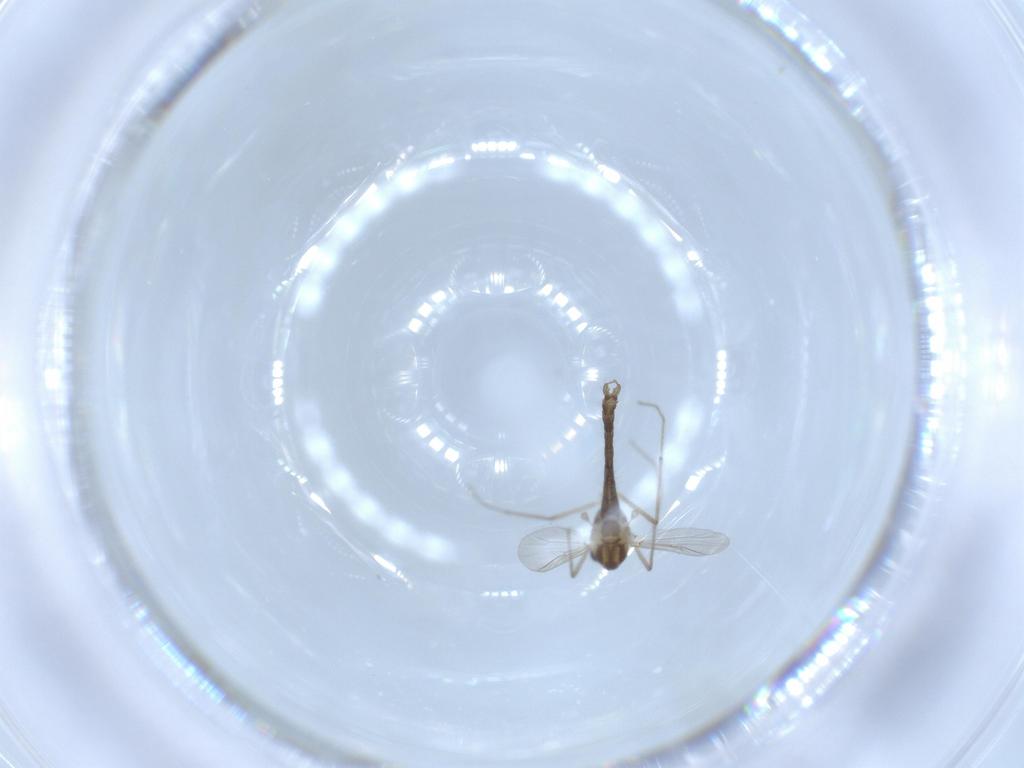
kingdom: Animalia
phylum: Arthropoda
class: Insecta
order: Diptera
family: Chironomidae
